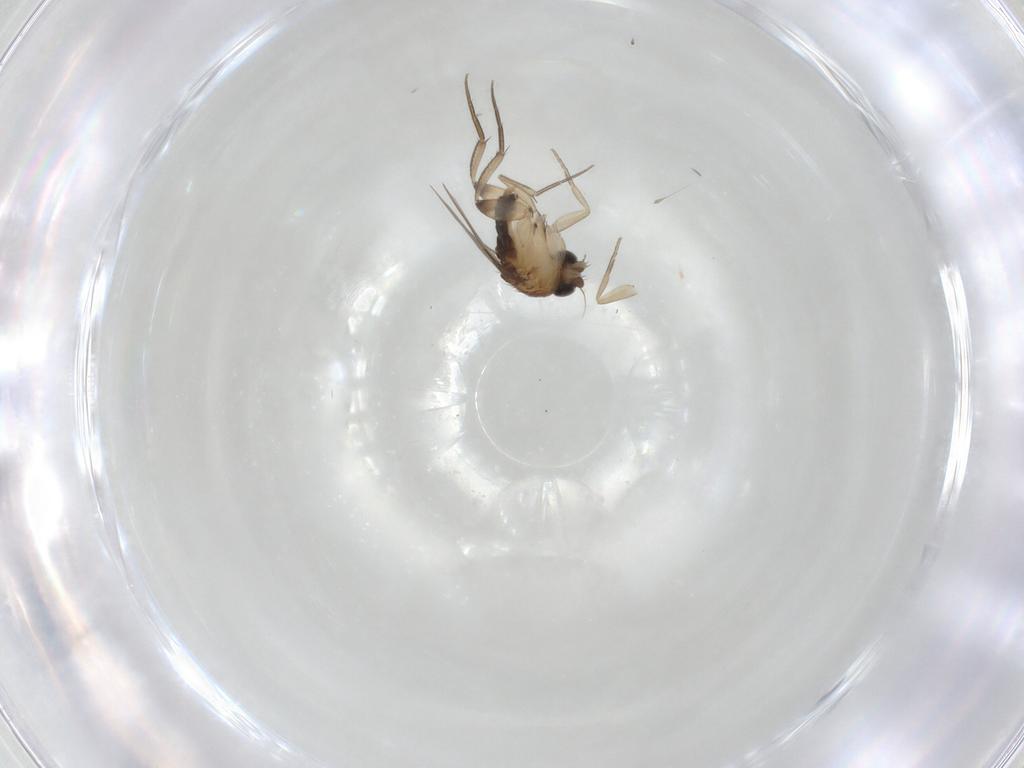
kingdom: Animalia
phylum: Arthropoda
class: Insecta
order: Diptera
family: Phoridae
